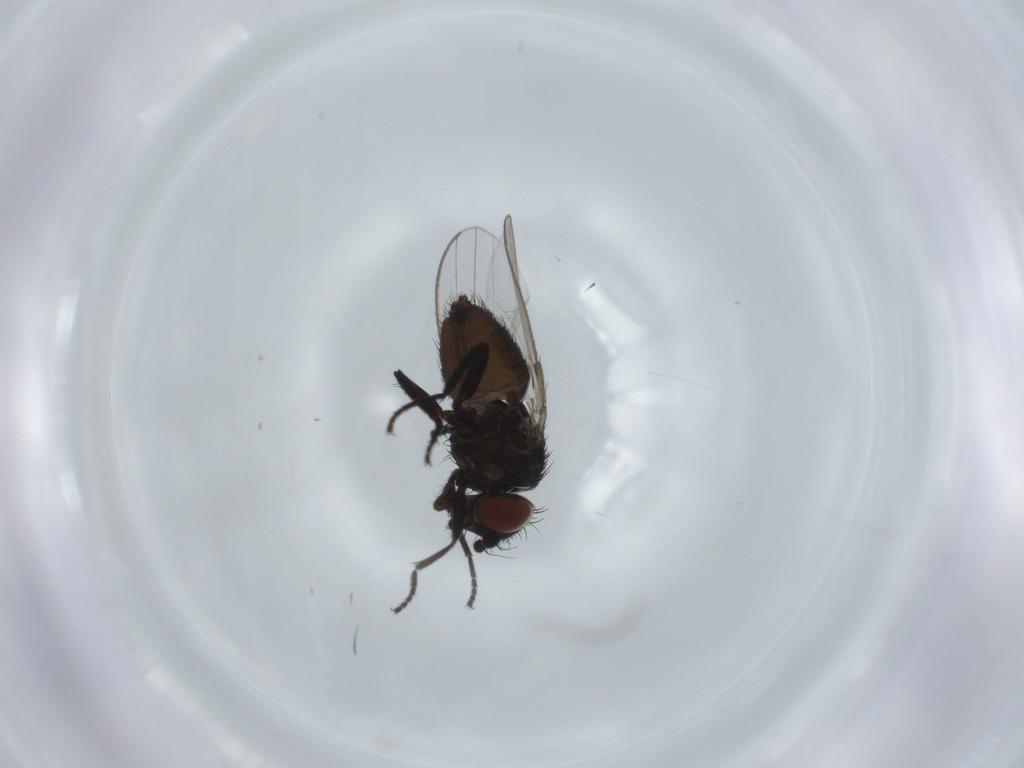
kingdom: Animalia
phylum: Arthropoda
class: Insecta
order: Diptera
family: Milichiidae
